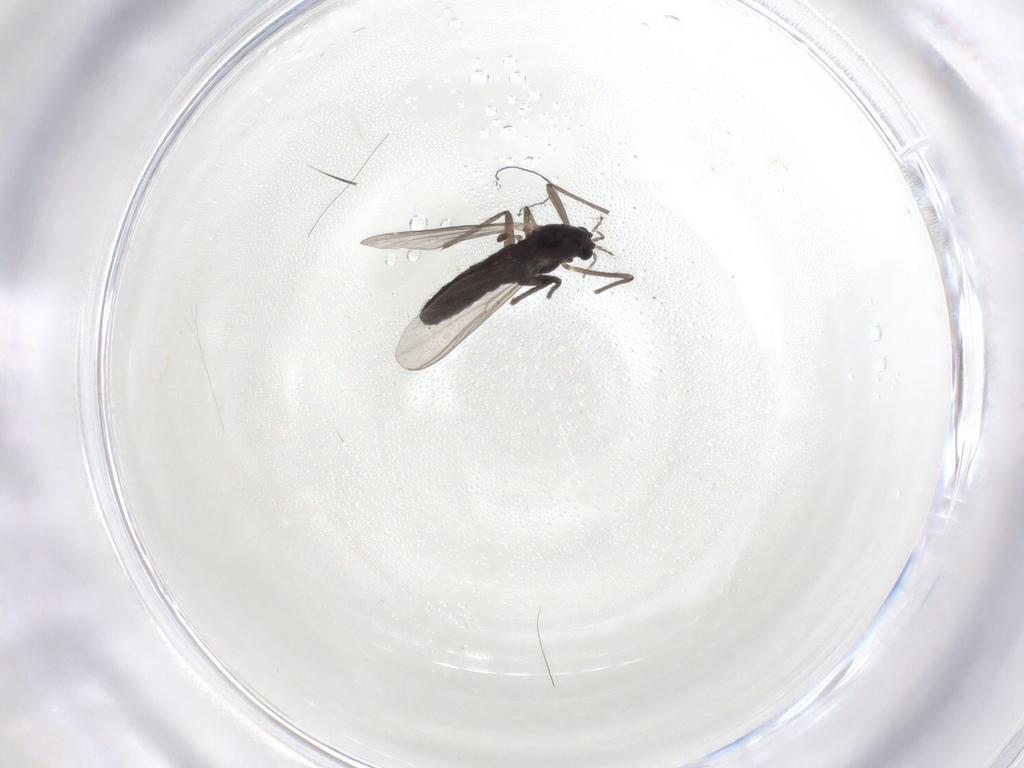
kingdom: Animalia
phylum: Arthropoda
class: Insecta
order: Diptera
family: Chironomidae
